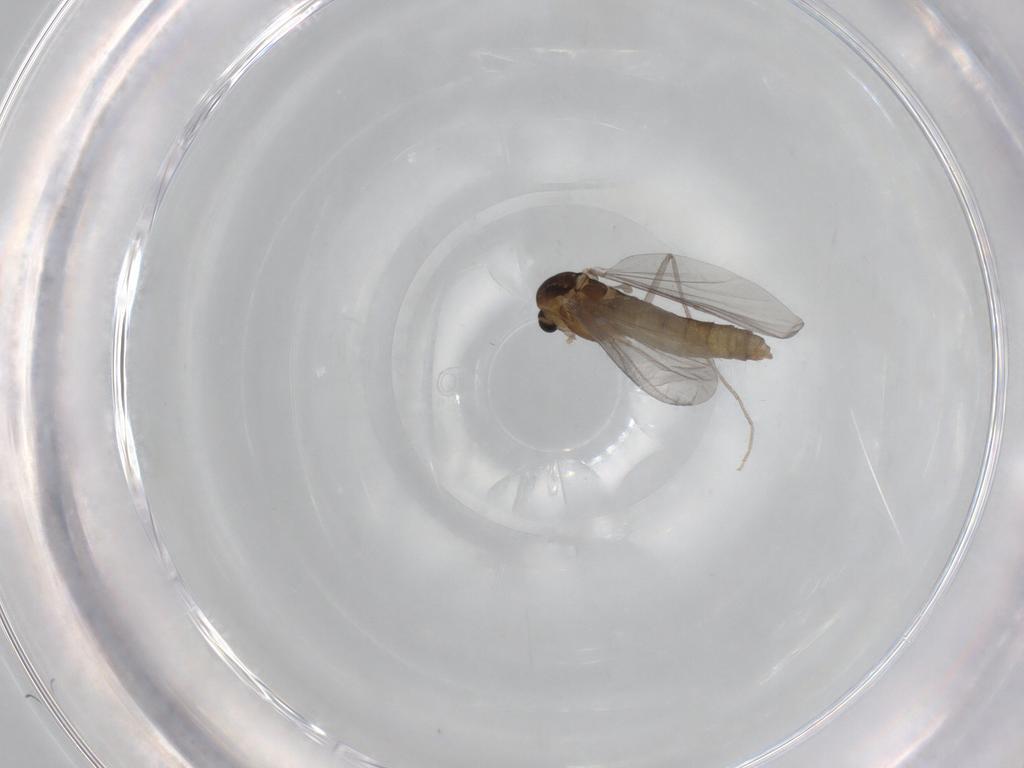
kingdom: Animalia
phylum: Arthropoda
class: Insecta
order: Diptera
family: Chironomidae
